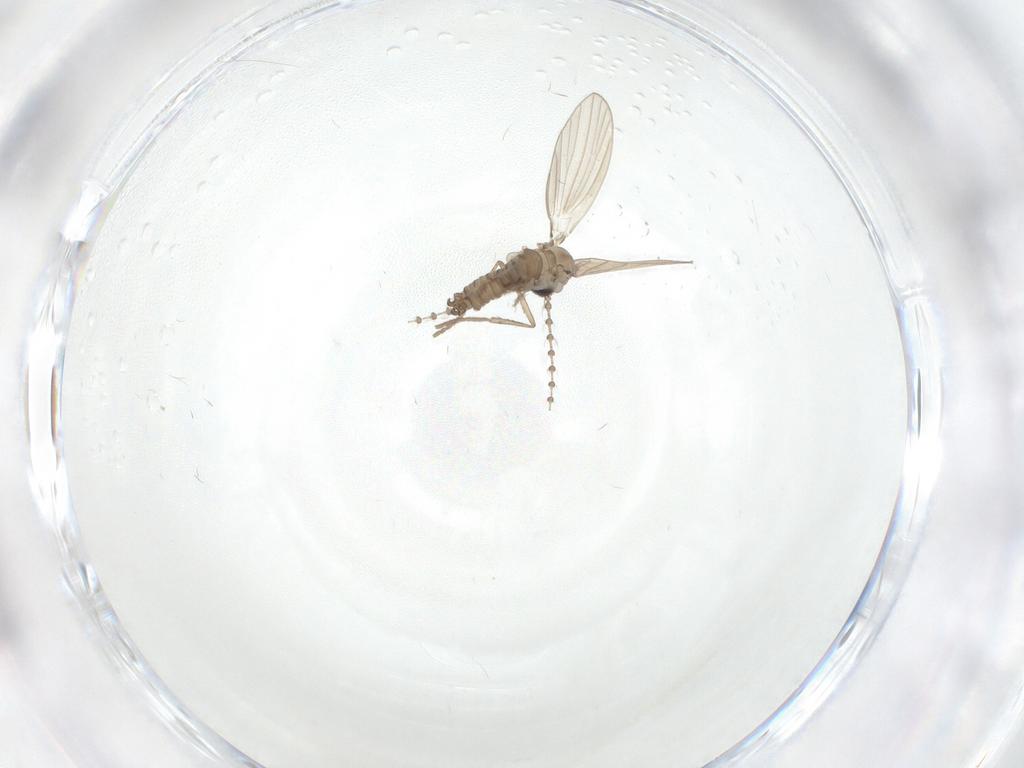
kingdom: Animalia
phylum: Arthropoda
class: Insecta
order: Diptera
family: Psychodidae
